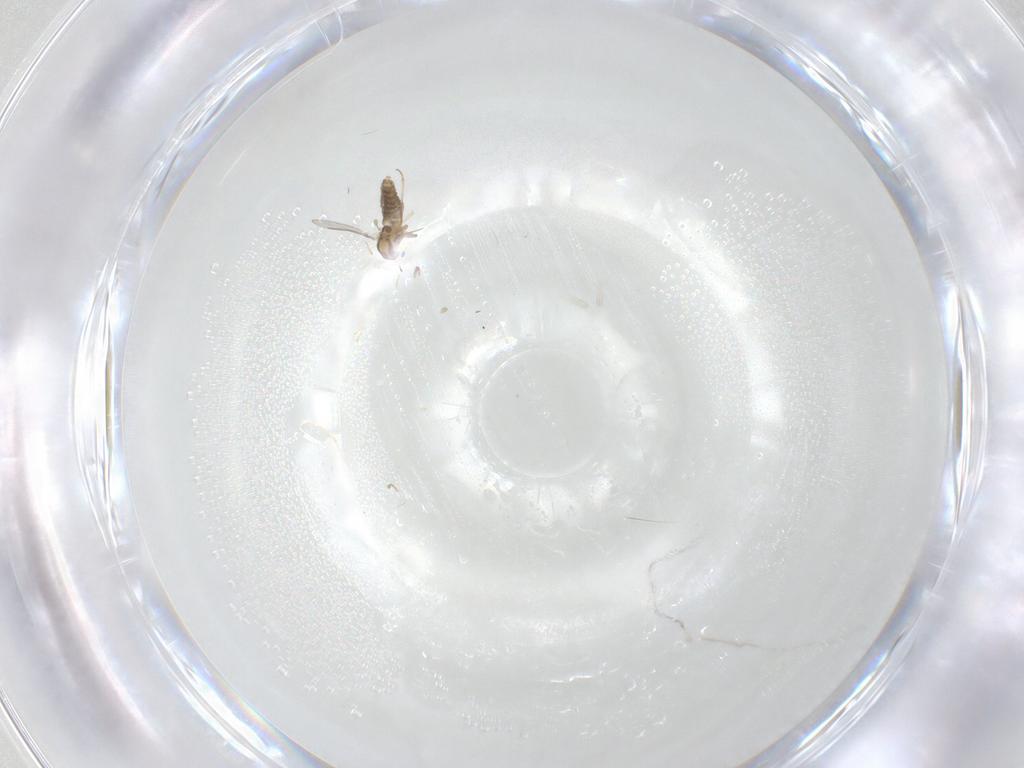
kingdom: Animalia
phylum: Arthropoda
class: Insecta
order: Diptera
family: Chironomidae
